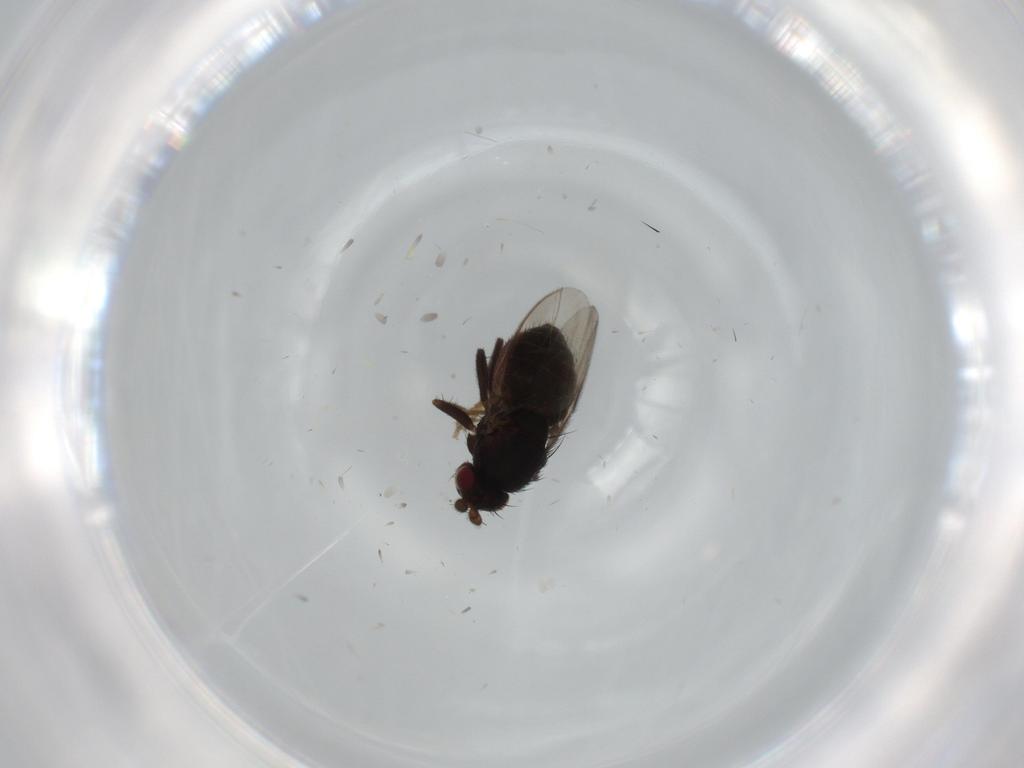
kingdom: Animalia
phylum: Arthropoda
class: Insecta
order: Diptera
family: Sphaeroceridae
